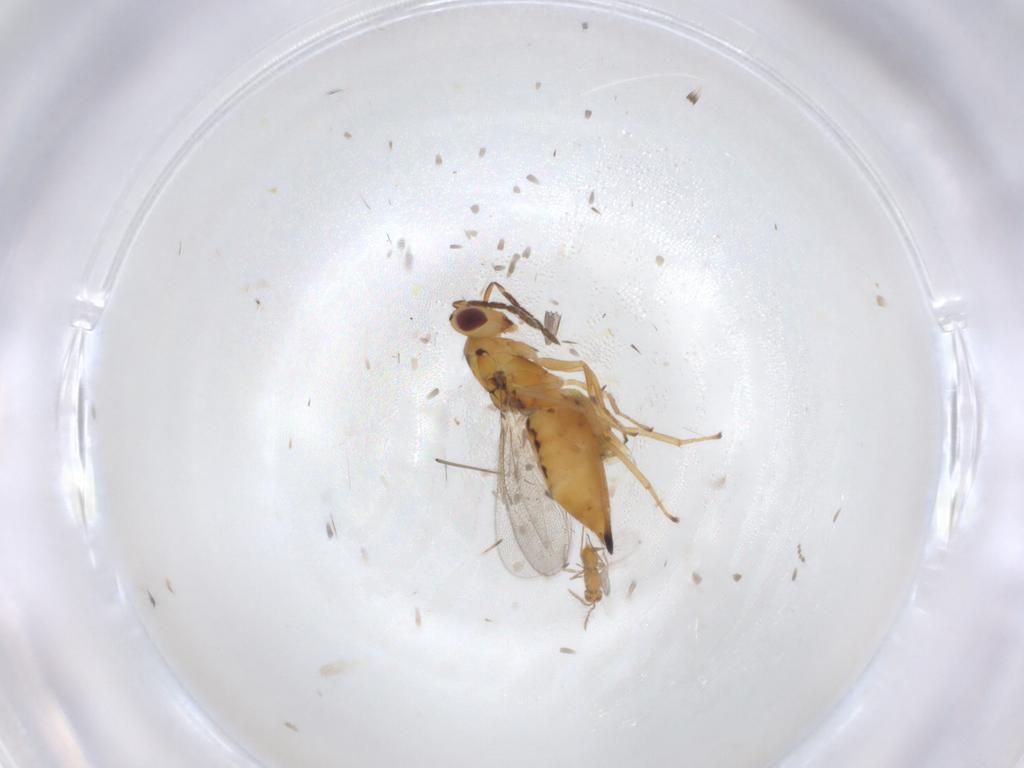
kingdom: Animalia
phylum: Arthropoda
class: Insecta
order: Hymenoptera
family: Eulophidae
